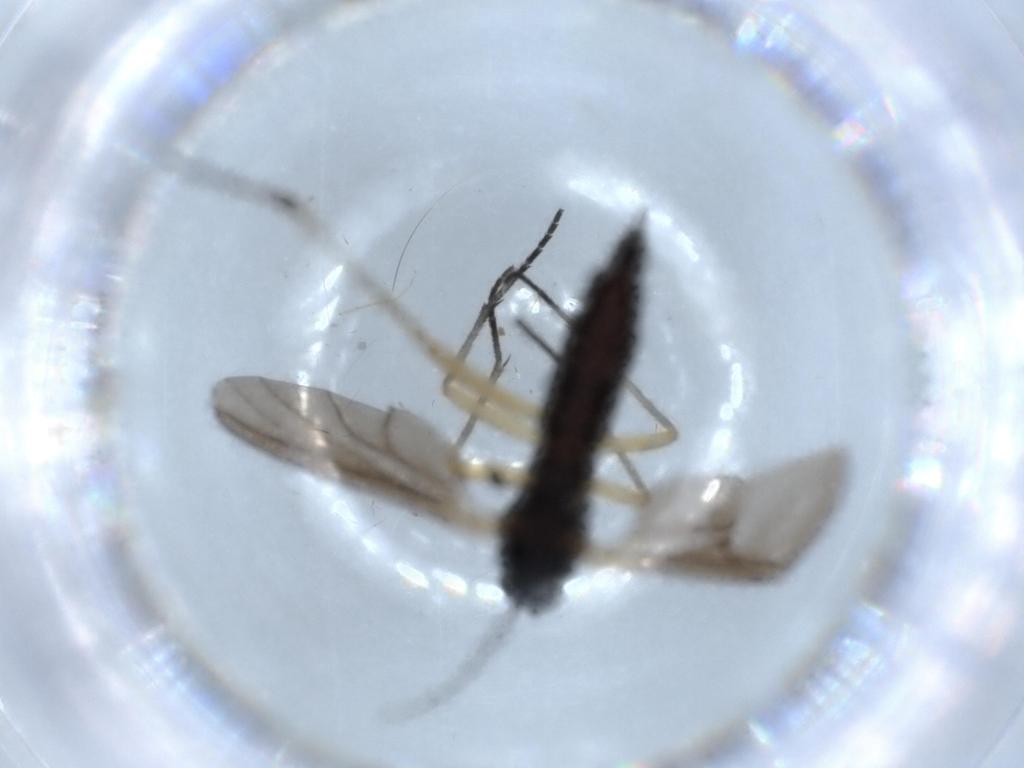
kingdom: Animalia
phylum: Arthropoda
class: Insecta
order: Diptera
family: Sciaridae
